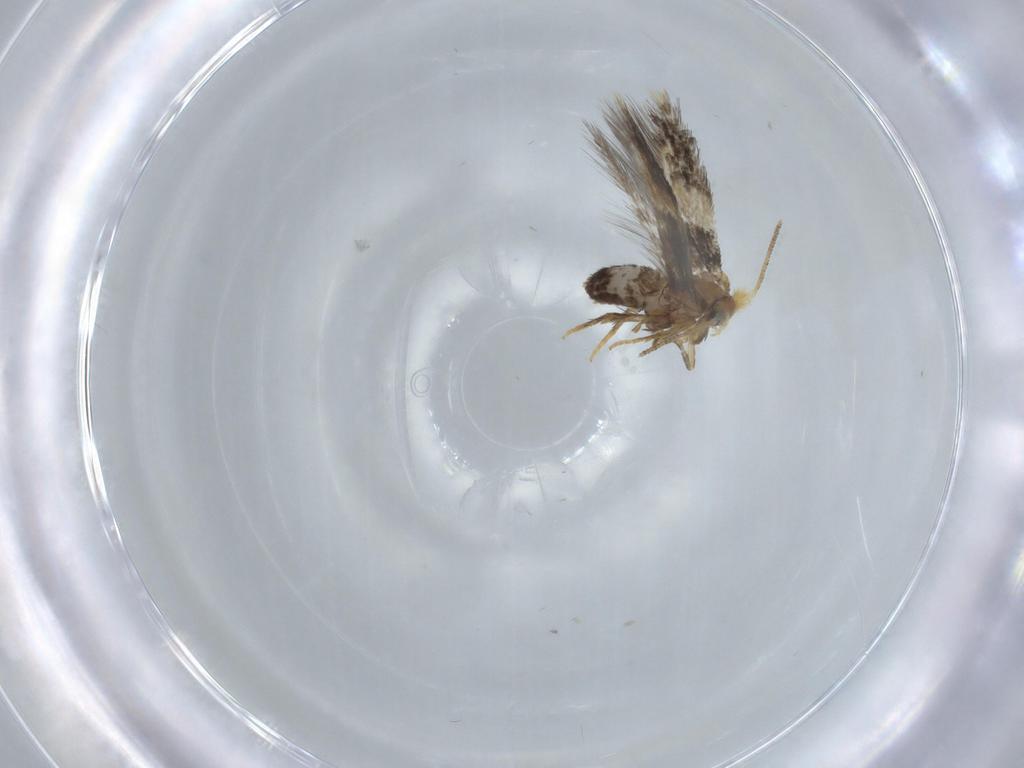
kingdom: Animalia
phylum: Arthropoda
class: Insecta
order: Lepidoptera
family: Nepticulidae
